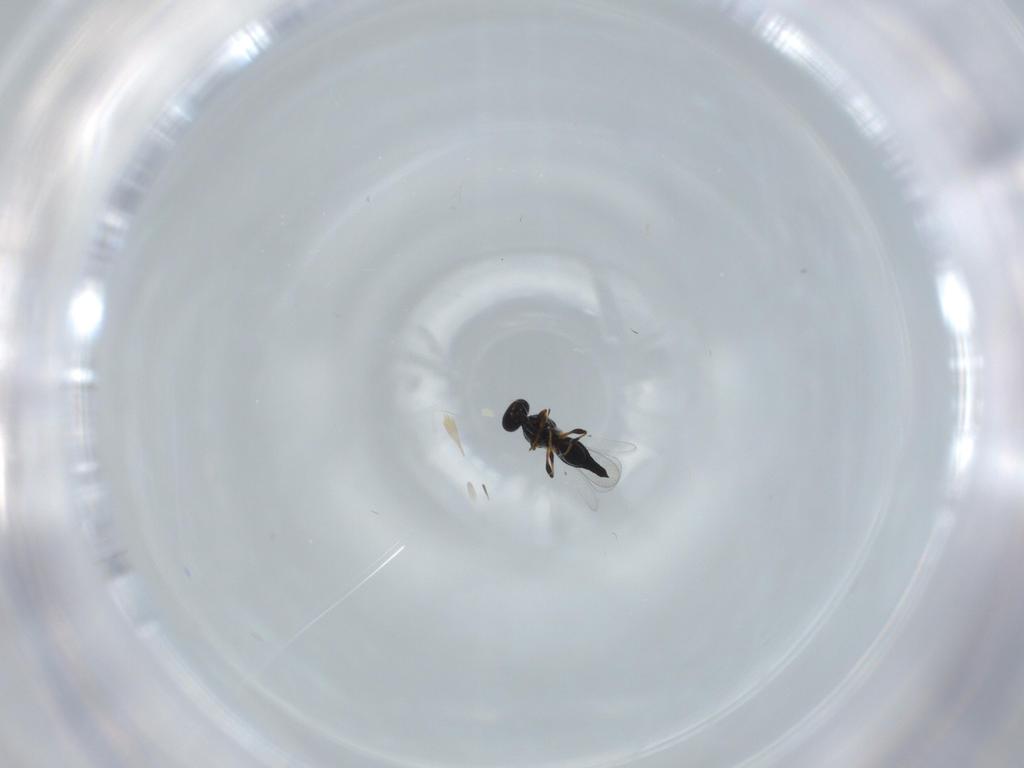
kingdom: Animalia
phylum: Arthropoda
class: Insecta
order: Hymenoptera
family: Platygastridae
